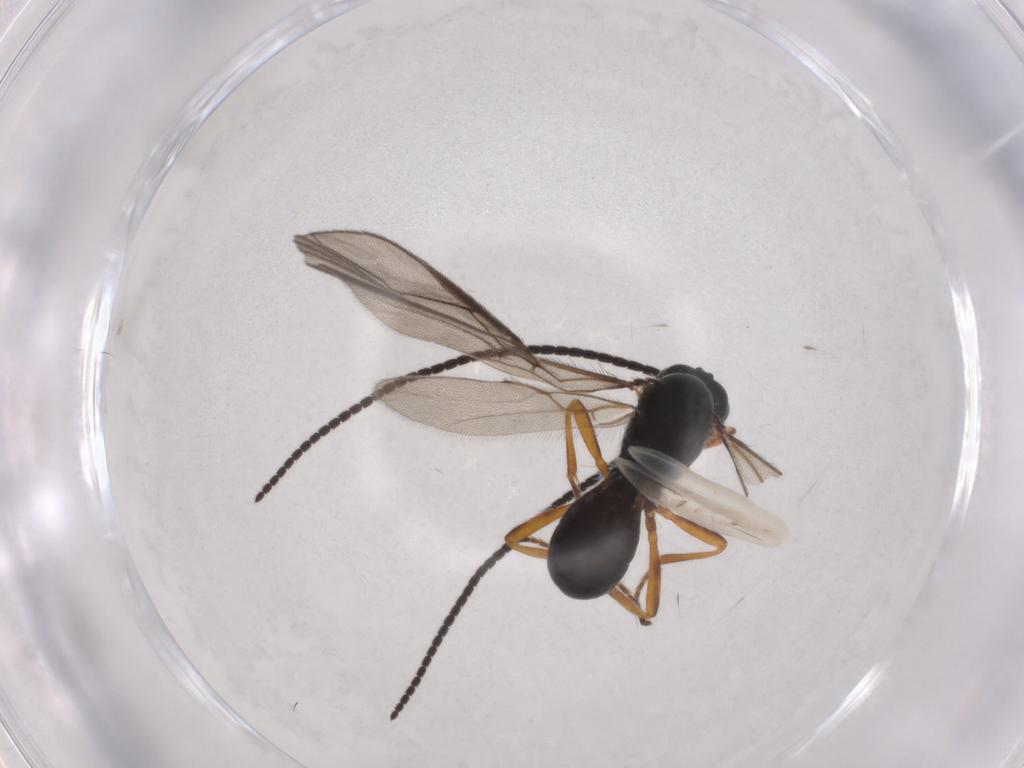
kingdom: Animalia
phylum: Arthropoda
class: Insecta
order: Hymenoptera
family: Braconidae
